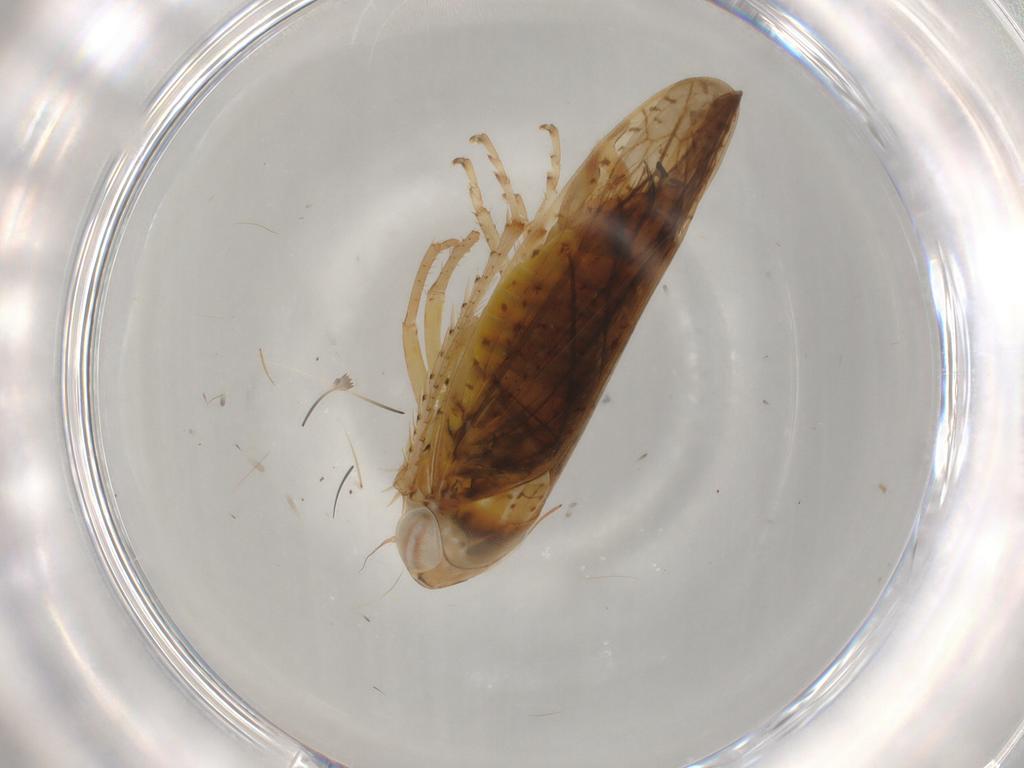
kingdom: Animalia
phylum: Arthropoda
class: Insecta
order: Hemiptera
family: Cicadellidae
